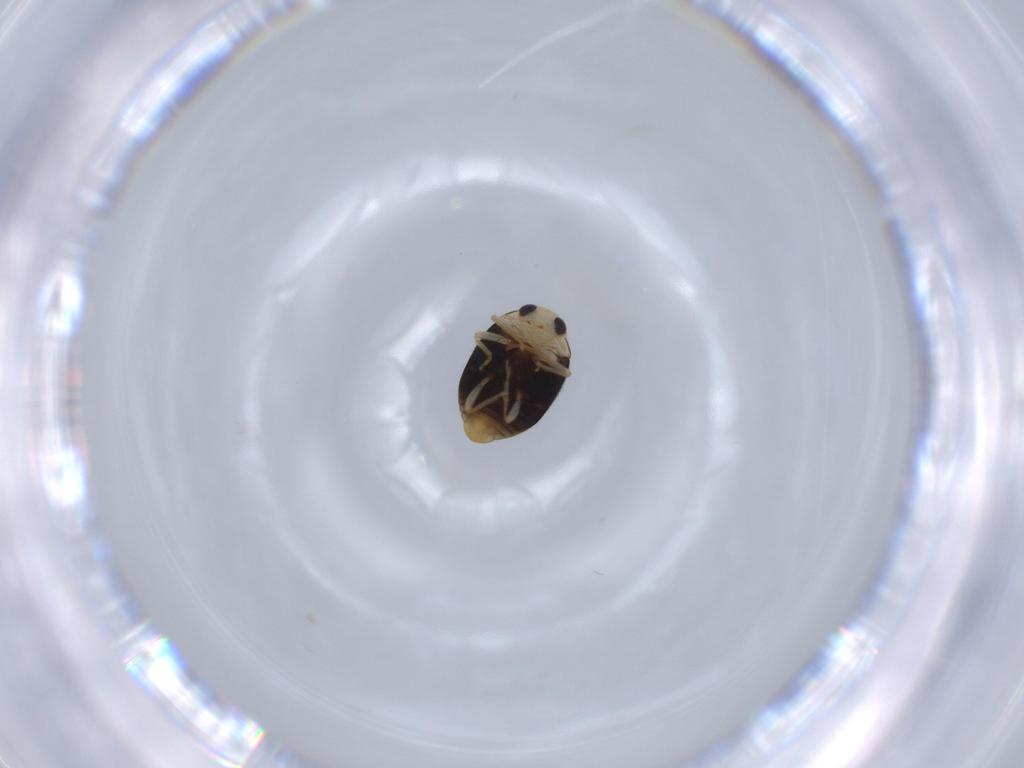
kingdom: Animalia
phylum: Arthropoda
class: Insecta
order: Coleoptera
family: Coccinellidae
